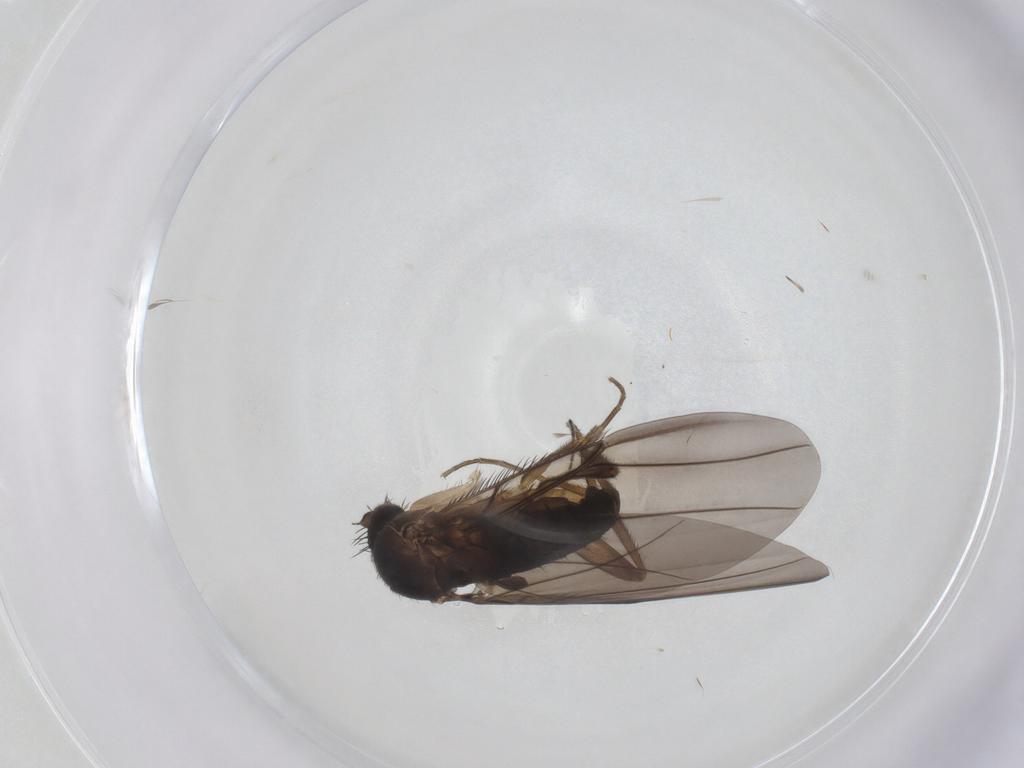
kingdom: Animalia
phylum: Arthropoda
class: Insecta
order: Diptera
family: Phoridae
